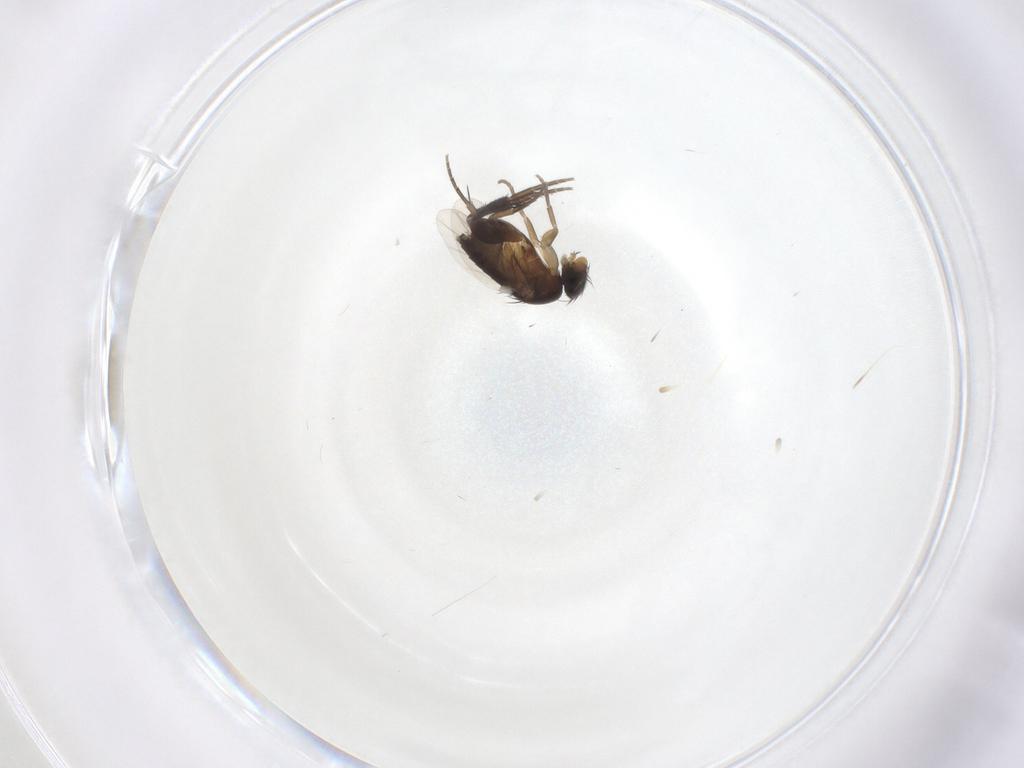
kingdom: Animalia
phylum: Arthropoda
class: Insecta
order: Diptera
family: Phoridae
